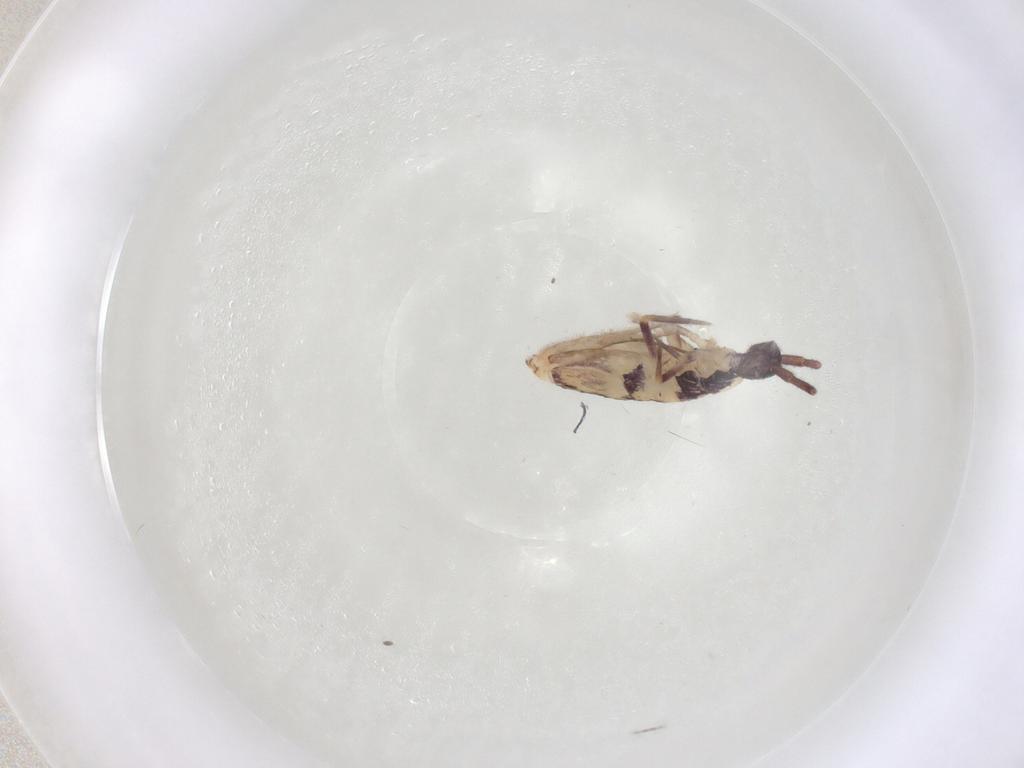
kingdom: Animalia
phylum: Arthropoda
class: Collembola
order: Entomobryomorpha
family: Entomobryidae
